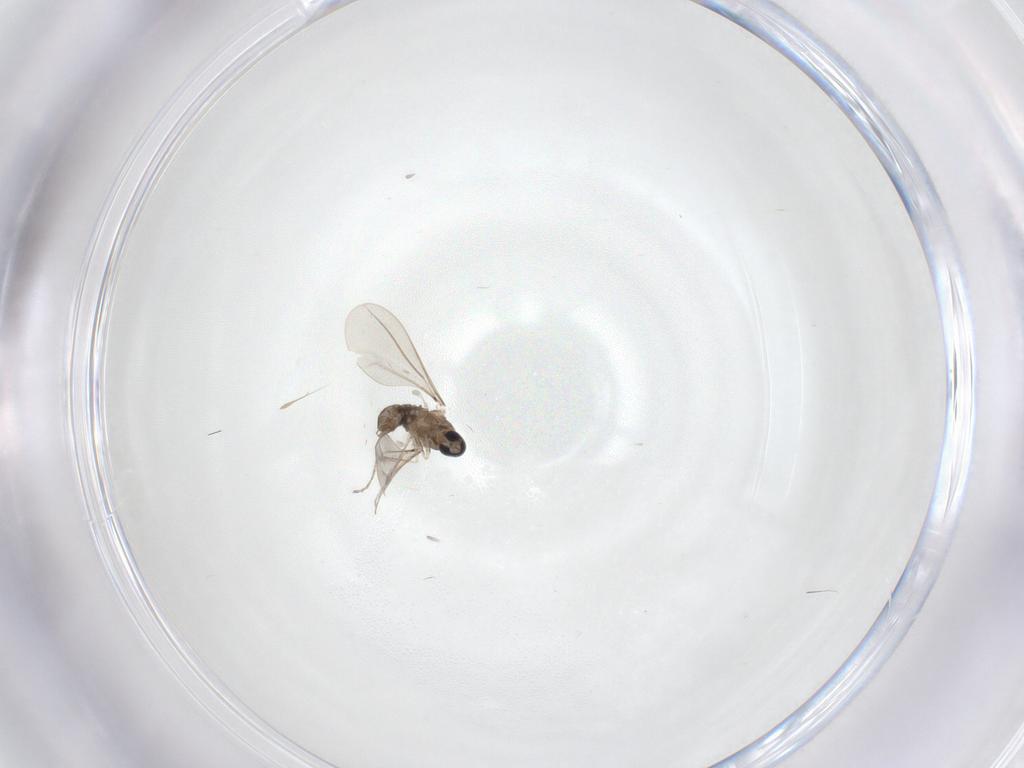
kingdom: Animalia
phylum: Arthropoda
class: Insecta
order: Diptera
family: Cecidomyiidae
